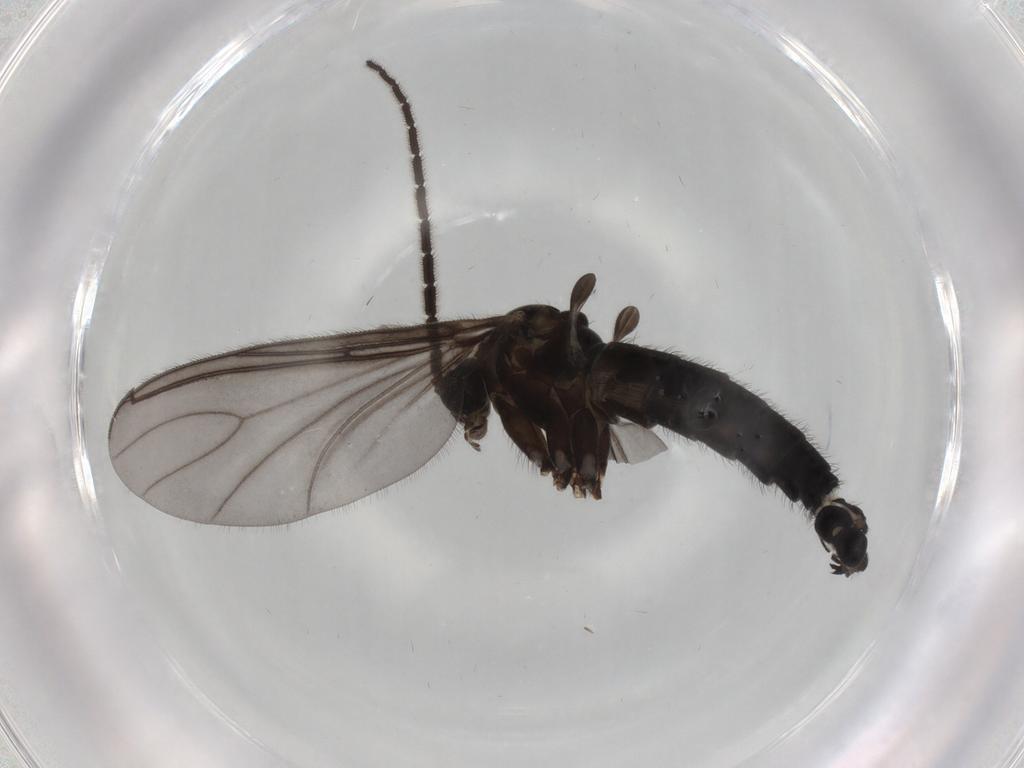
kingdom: Animalia
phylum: Arthropoda
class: Insecta
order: Diptera
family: Sciaridae
